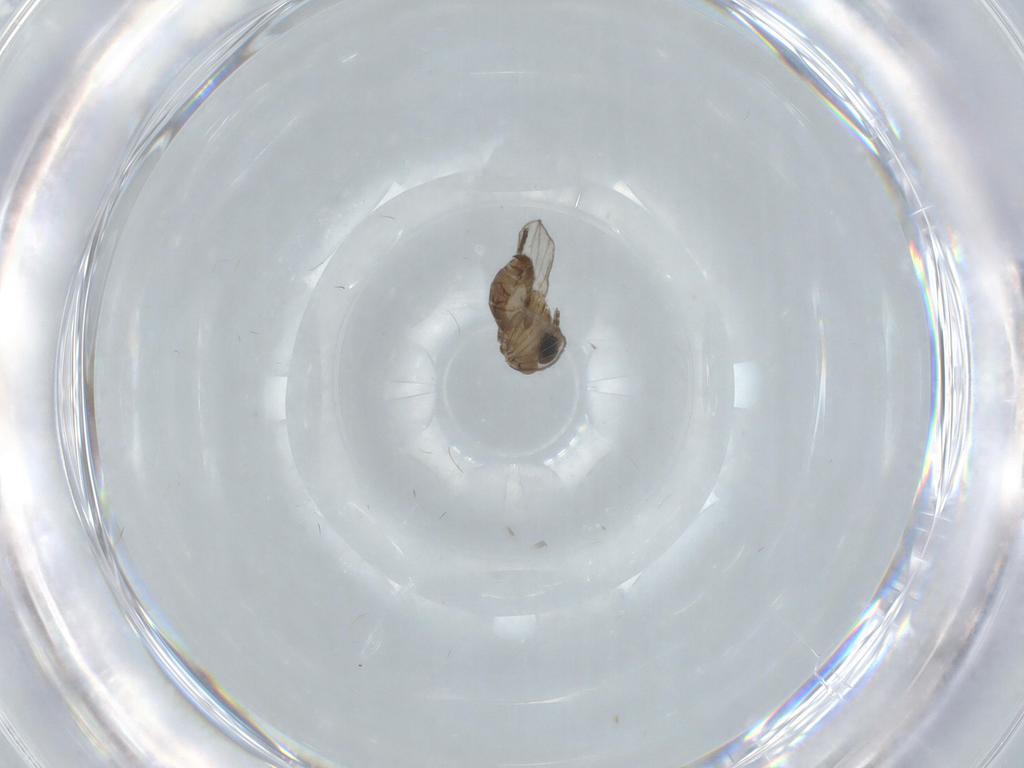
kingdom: Animalia
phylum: Arthropoda
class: Insecta
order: Diptera
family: Psychodidae
